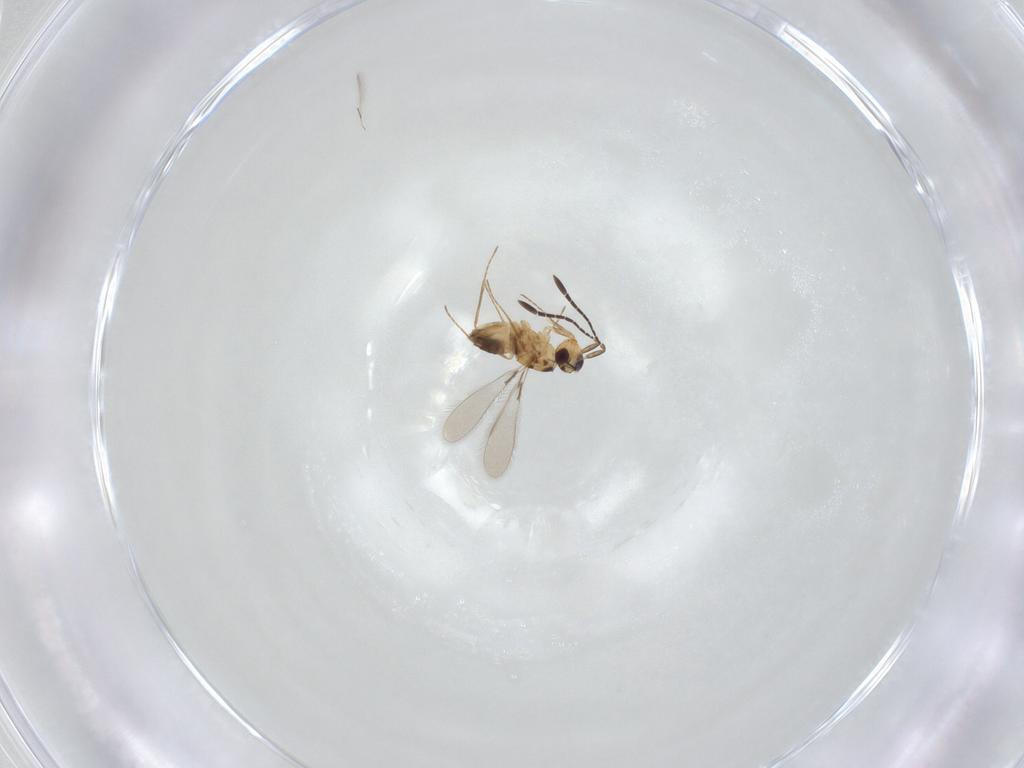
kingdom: Animalia
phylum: Arthropoda
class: Insecta
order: Hymenoptera
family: Mymaridae
